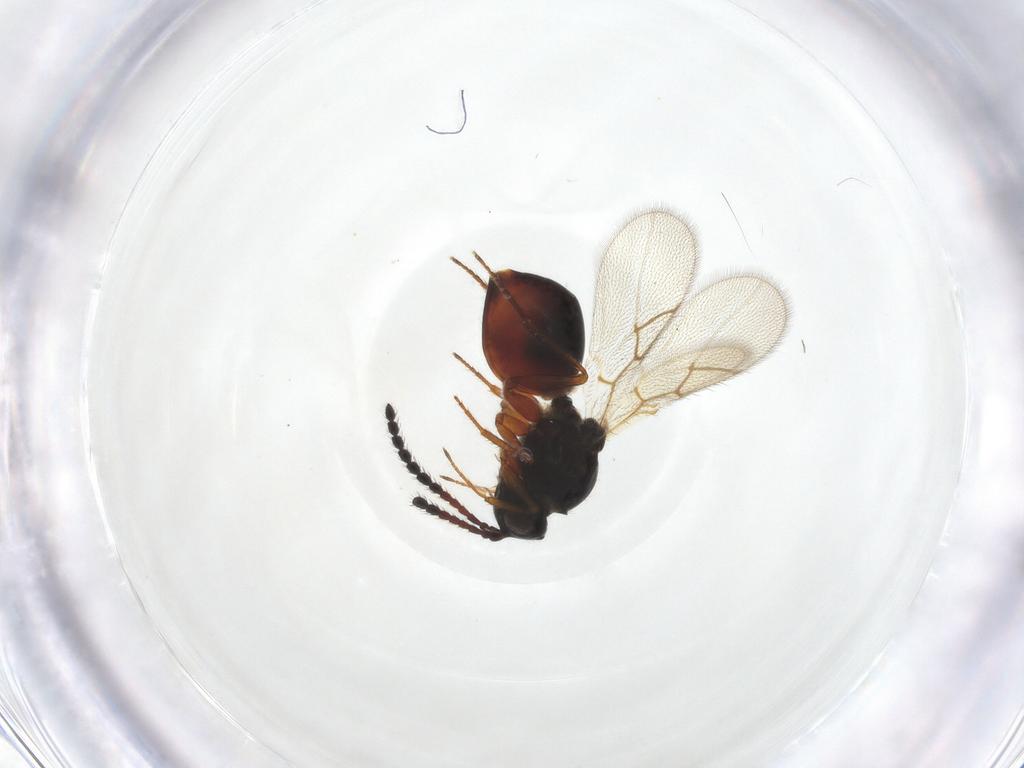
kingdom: Animalia
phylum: Arthropoda
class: Insecta
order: Hymenoptera
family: Figitidae
